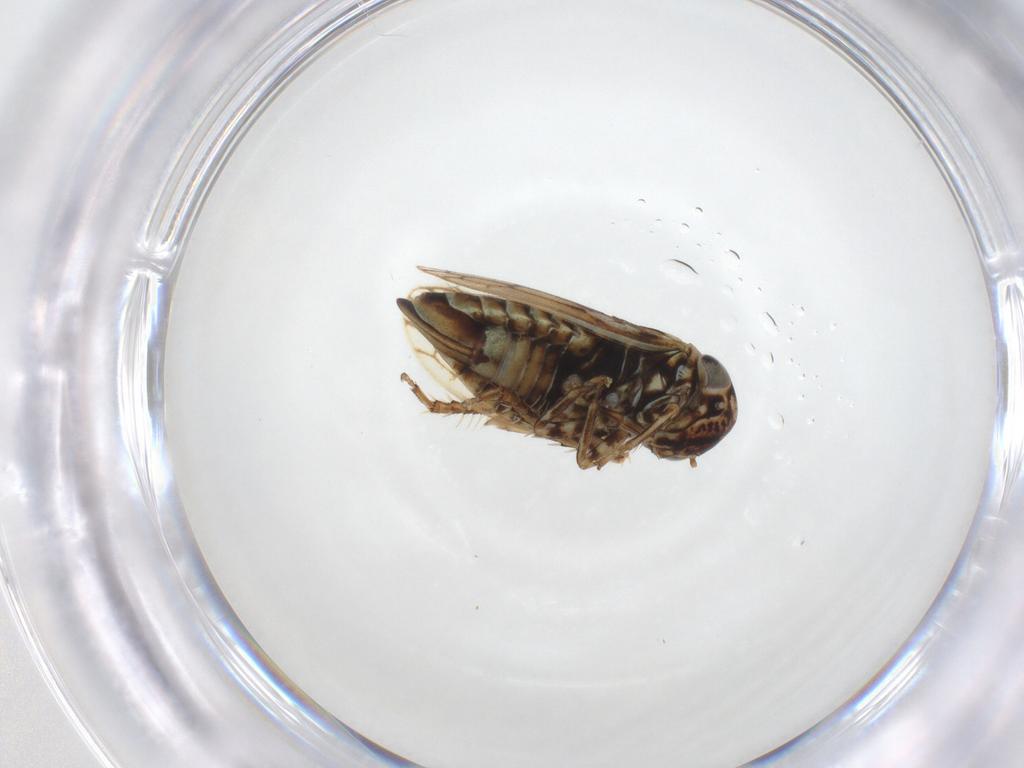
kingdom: Animalia
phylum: Arthropoda
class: Insecta
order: Hemiptera
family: Cicadellidae
